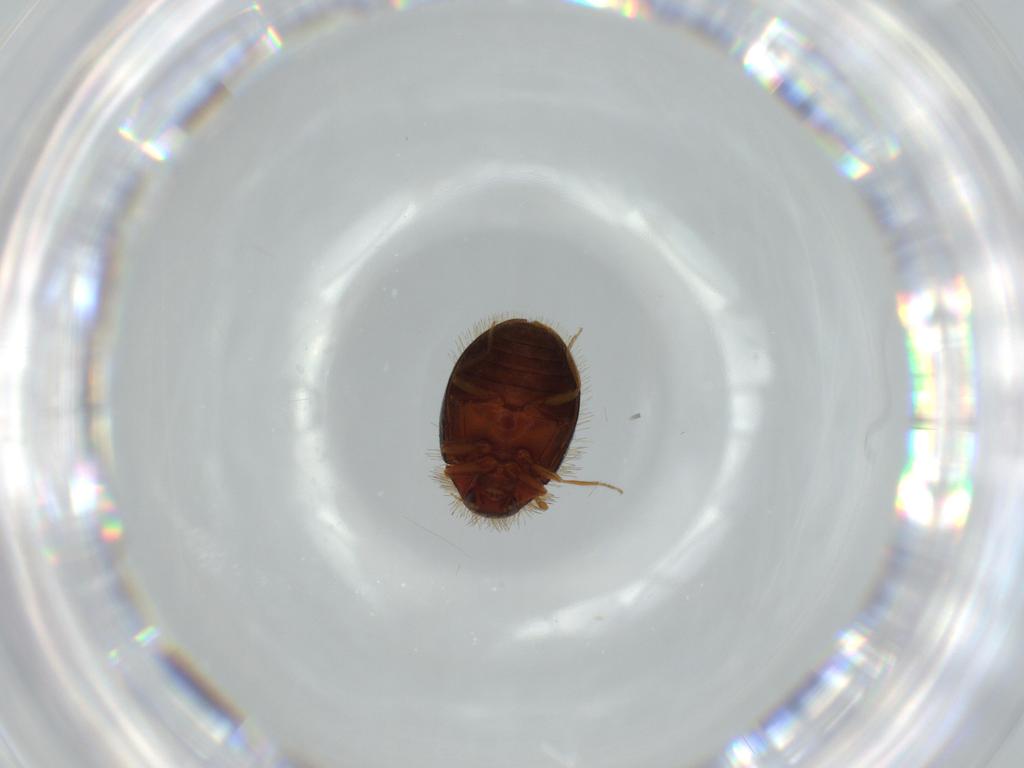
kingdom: Animalia
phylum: Arthropoda
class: Insecta
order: Coleoptera
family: Dermestidae
